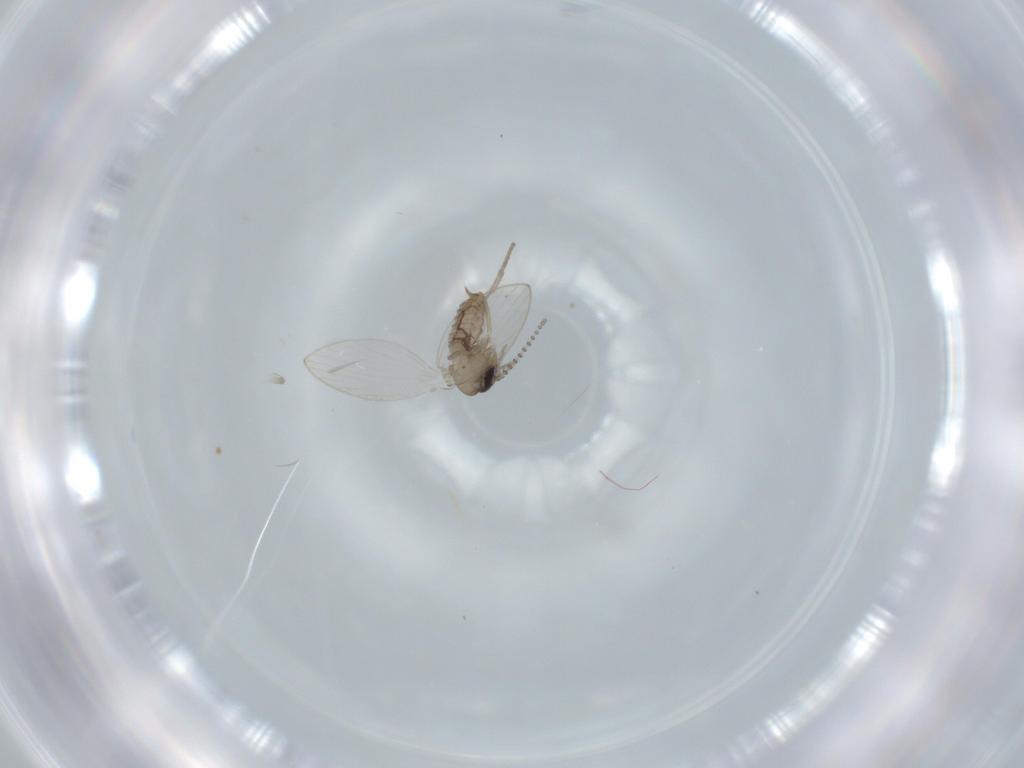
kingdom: Animalia
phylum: Arthropoda
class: Insecta
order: Diptera
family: Psychodidae
